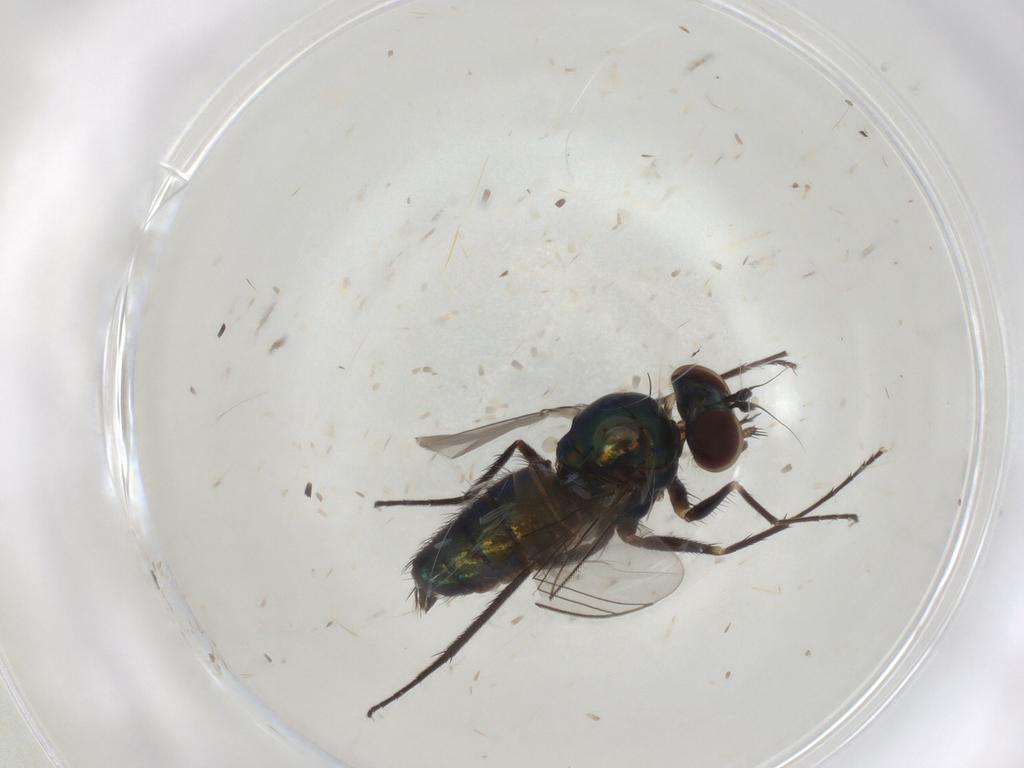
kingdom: Animalia
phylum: Arthropoda
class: Insecta
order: Diptera
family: Dolichopodidae
